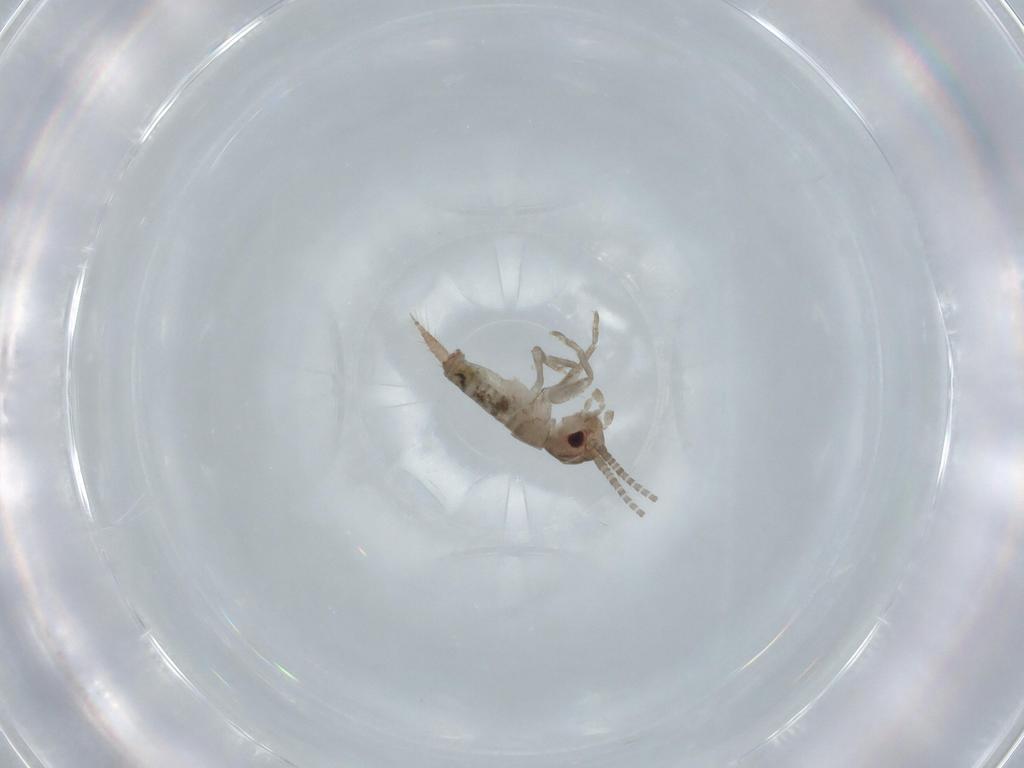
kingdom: Animalia
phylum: Arthropoda
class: Insecta
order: Orthoptera
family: Gryllidae
